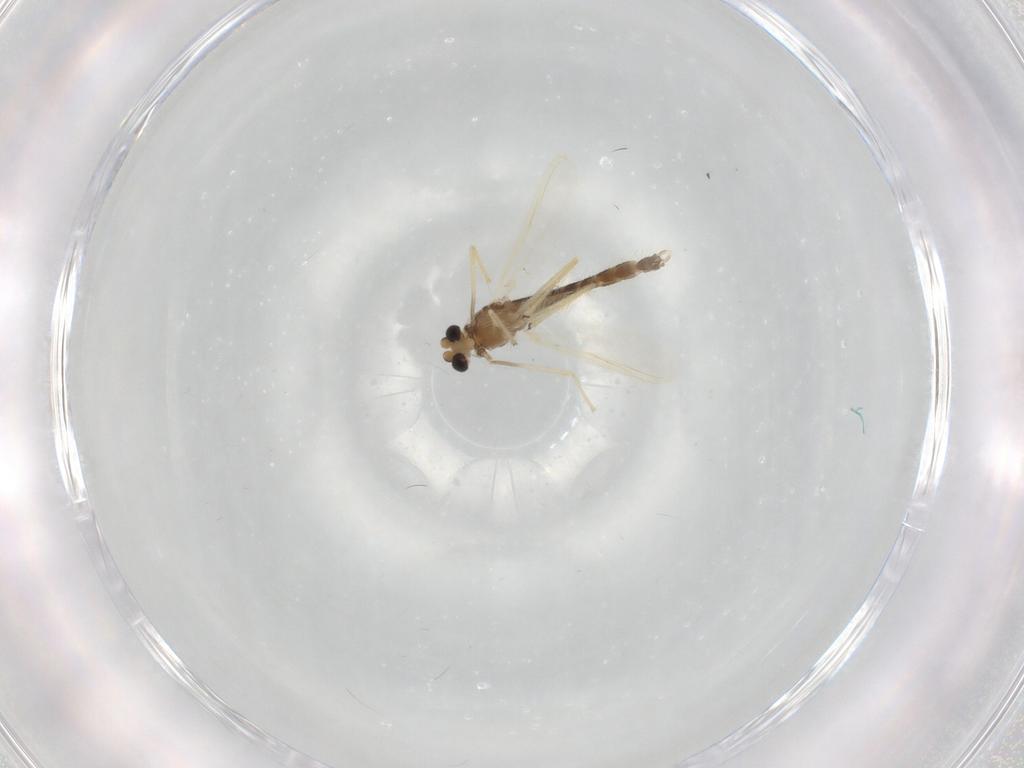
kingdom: Animalia
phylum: Arthropoda
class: Insecta
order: Diptera
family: Chironomidae
